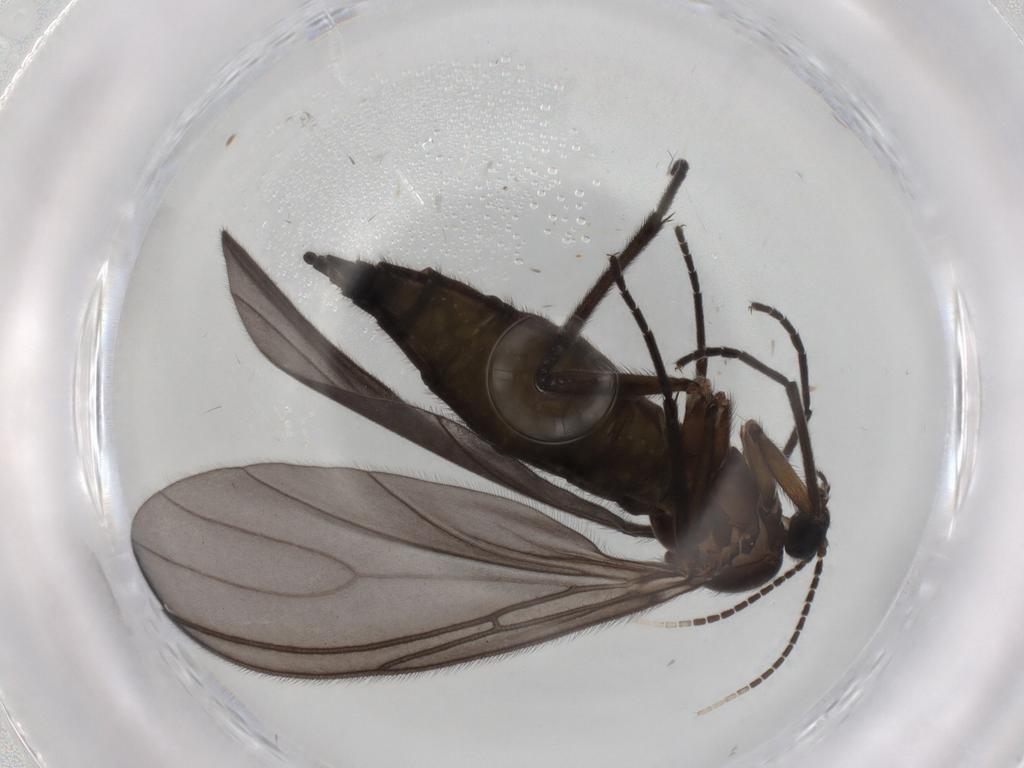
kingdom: Animalia
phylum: Arthropoda
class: Insecta
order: Diptera
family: Sciaridae
